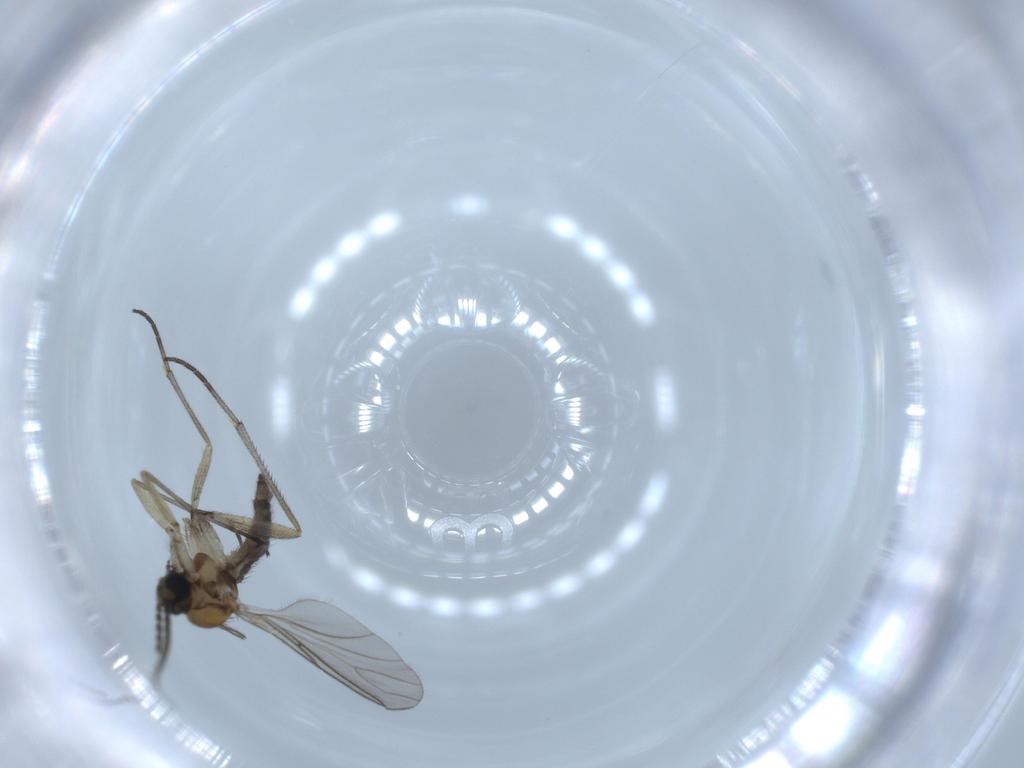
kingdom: Animalia
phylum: Arthropoda
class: Insecta
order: Diptera
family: Sciaridae
